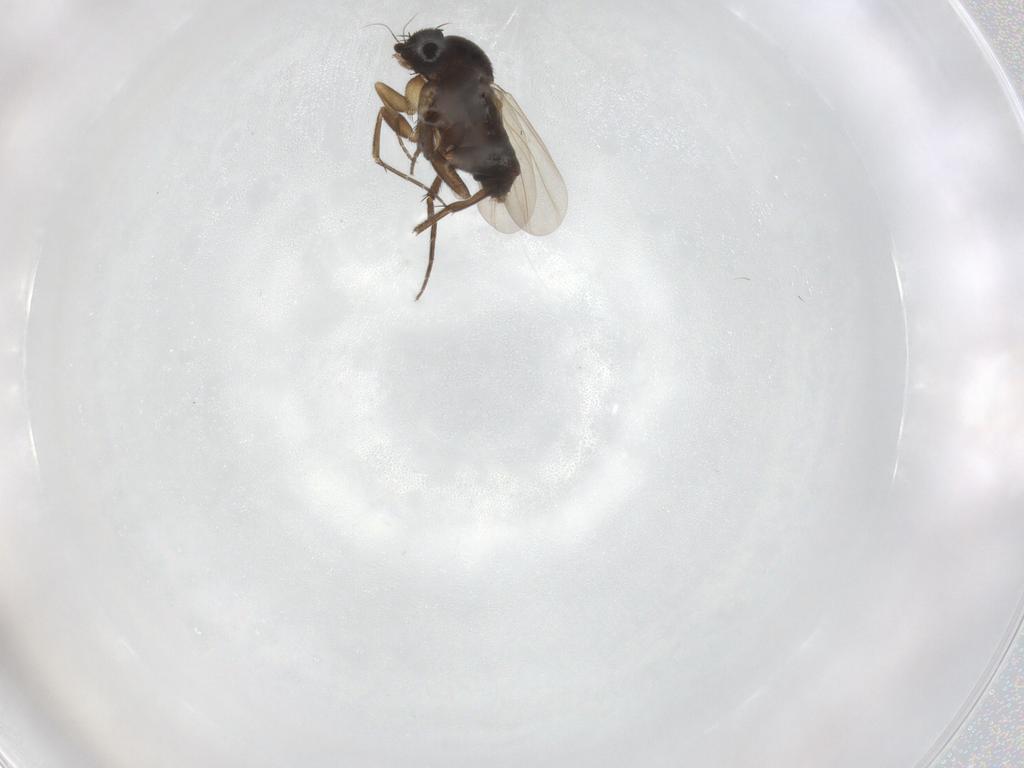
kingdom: Animalia
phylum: Arthropoda
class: Insecta
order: Diptera
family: Phoridae
